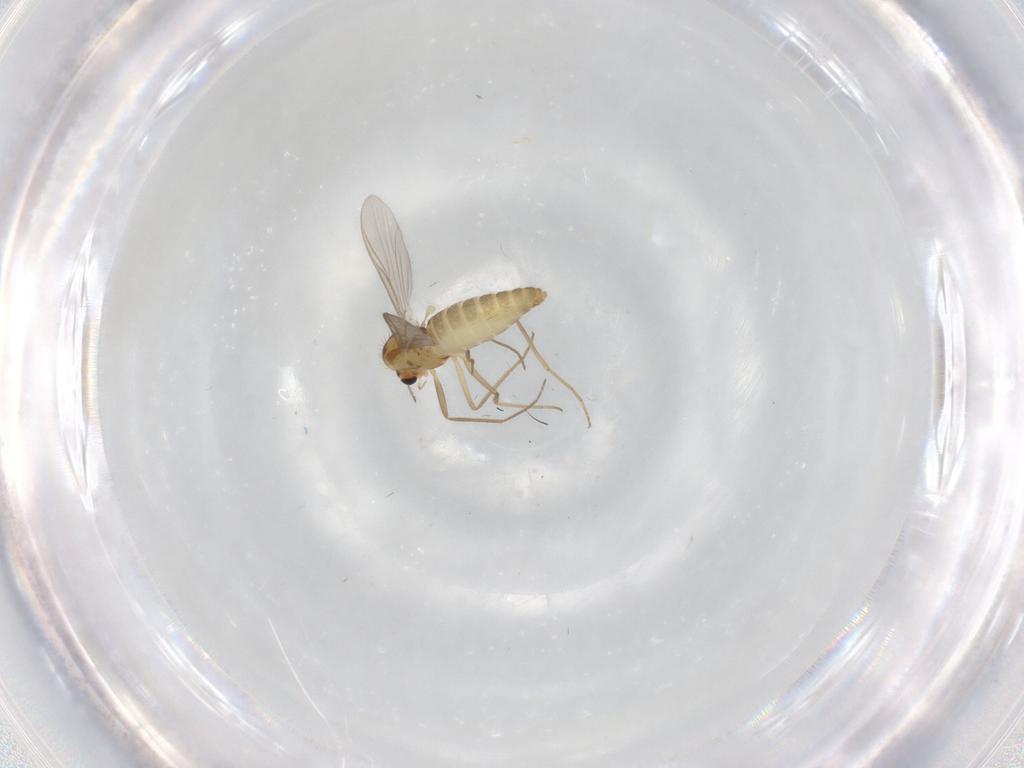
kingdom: Animalia
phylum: Arthropoda
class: Insecta
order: Diptera
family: Chironomidae
